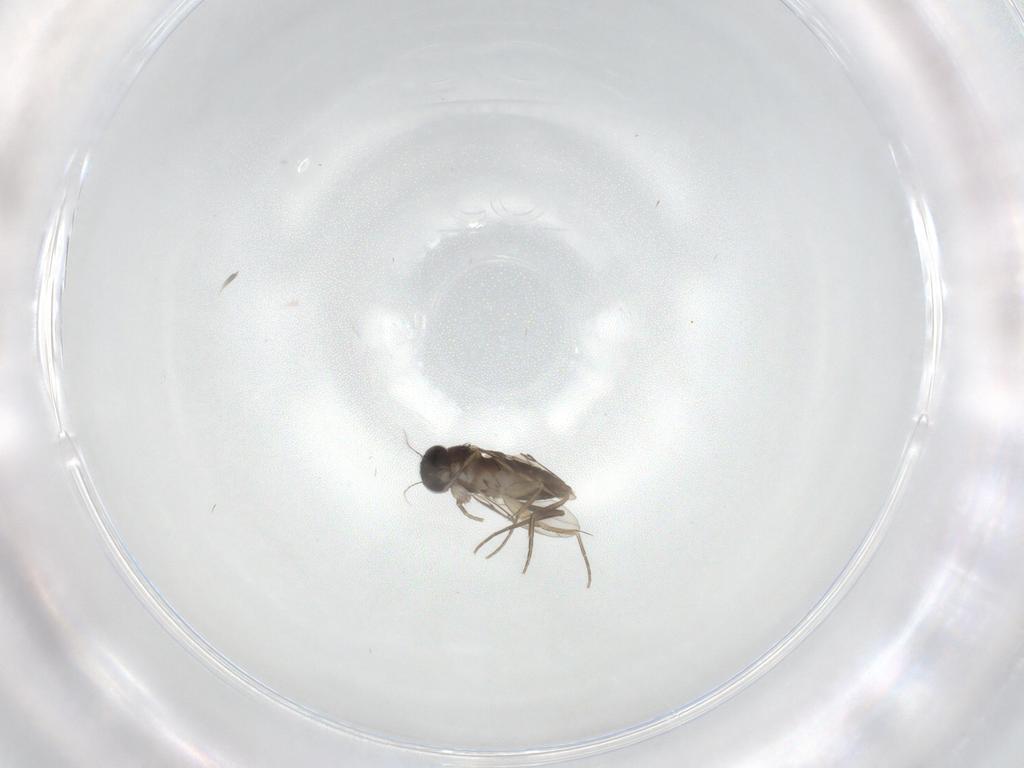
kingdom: Animalia
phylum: Arthropoda
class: Insecta
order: Diptera
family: Phoridae
